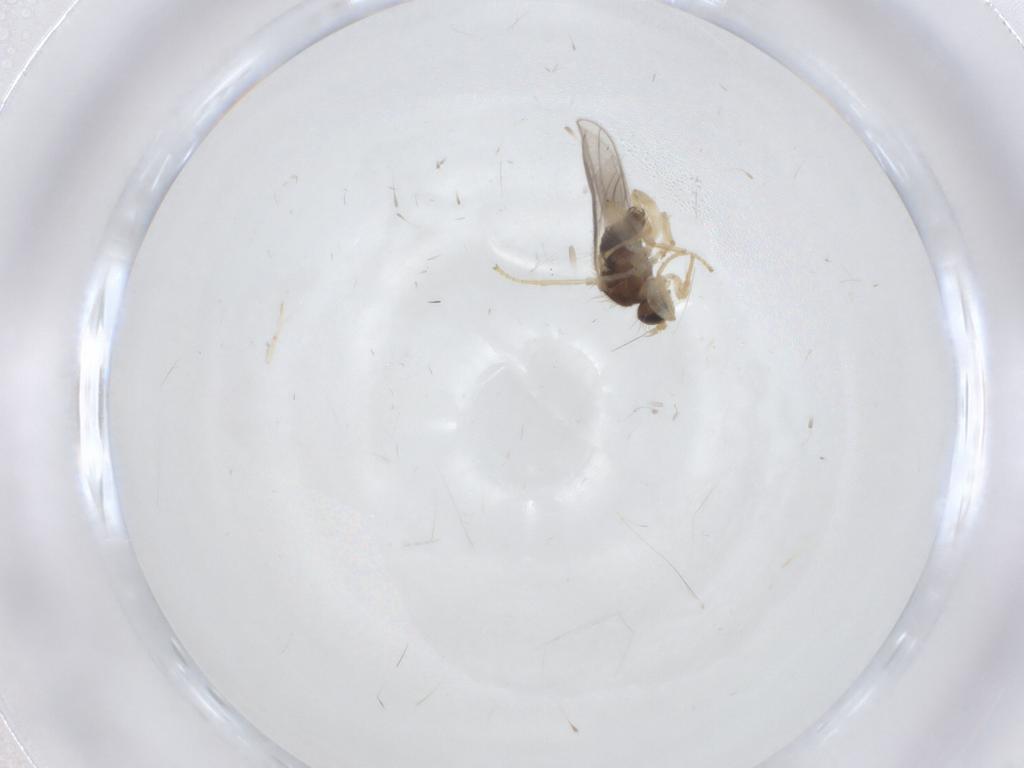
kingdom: Animalia
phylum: Arthropoda
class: Insecta
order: Diptera
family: Hybotidae
